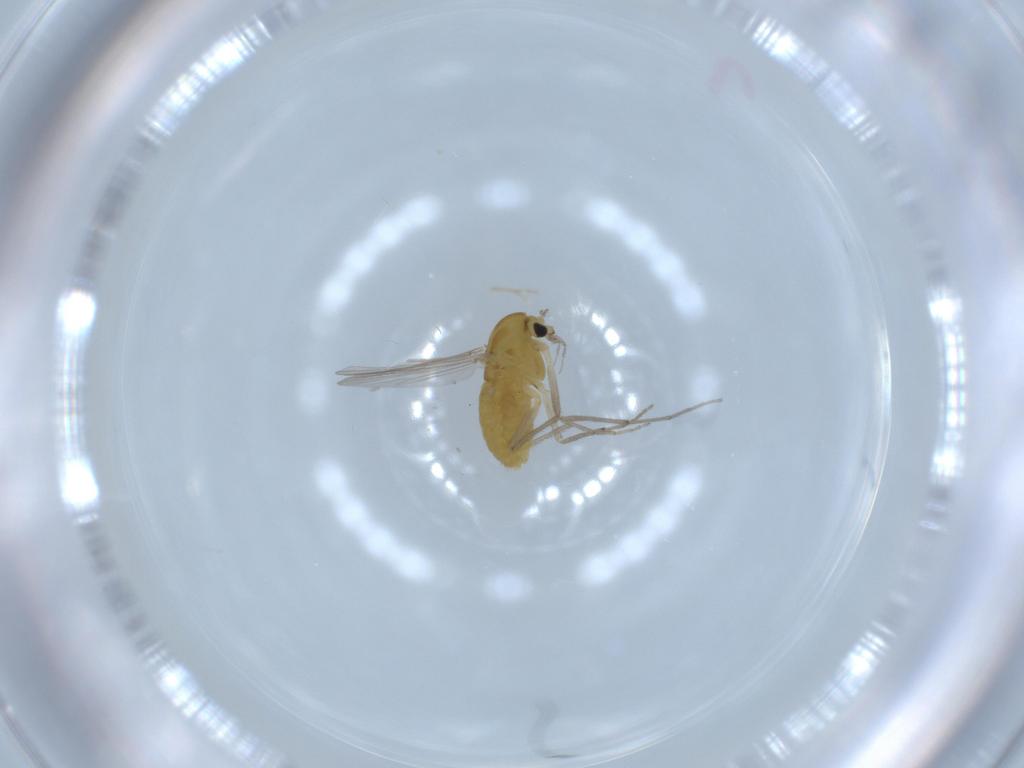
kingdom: Animalia
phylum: Arthropoda
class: Insecta
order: Diptera
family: Chironomidae
